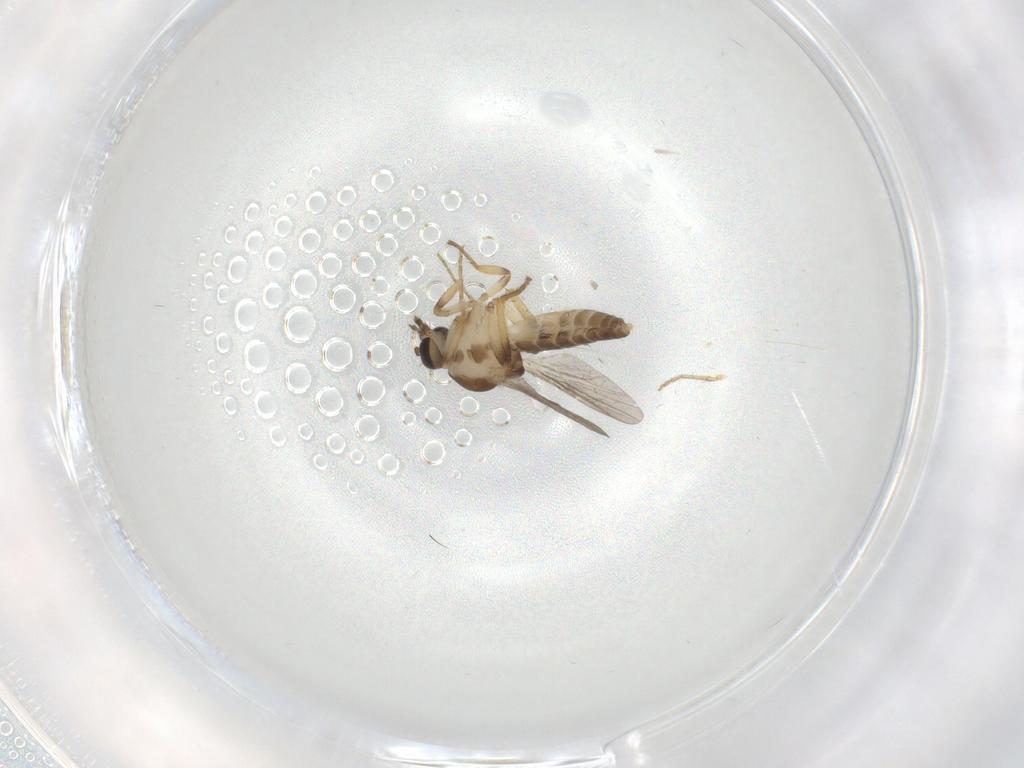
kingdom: Animalia
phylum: Arthropoda
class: Insecta
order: Diptera
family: Ceratopogonidae
